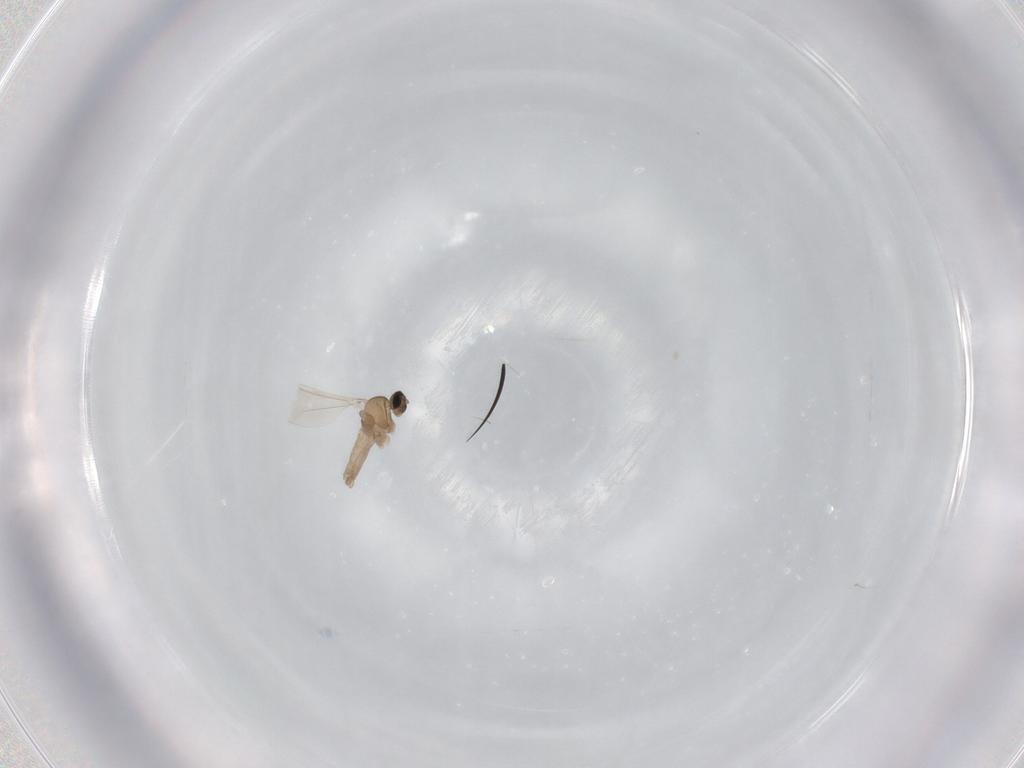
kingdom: Animalia
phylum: Arthropoda
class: Insecta
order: Diptera
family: Cecidomyiidae
